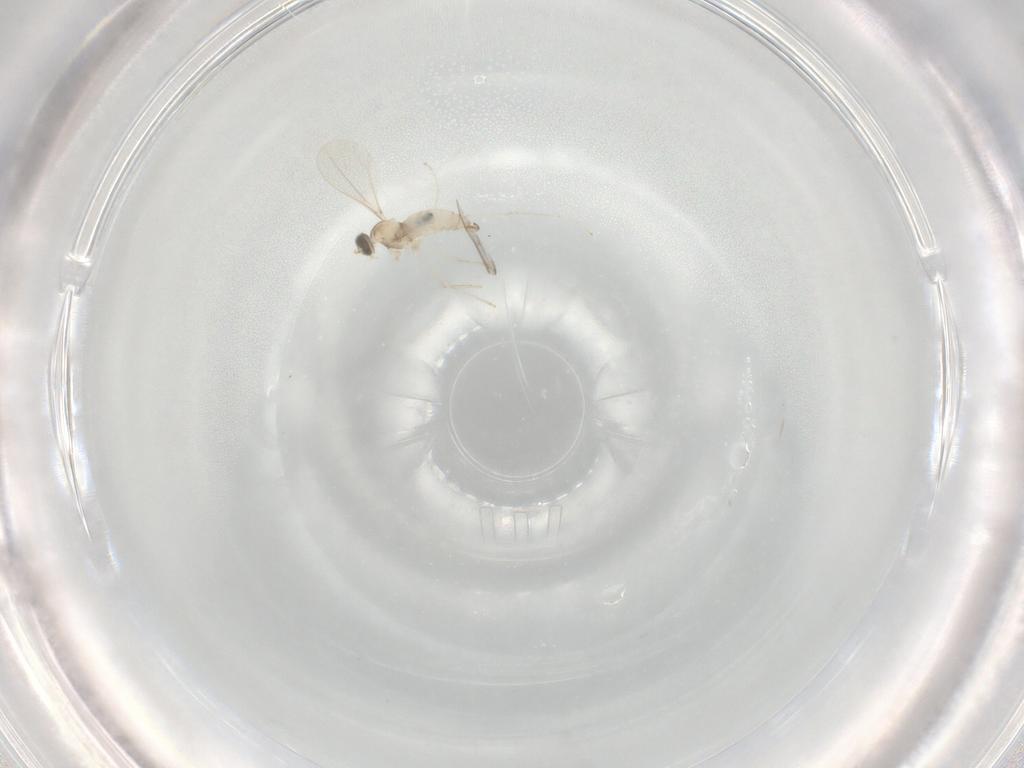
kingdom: Animalia
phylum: Arthropoda
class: Insecta
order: Diptera
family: Cecidomyiidae
